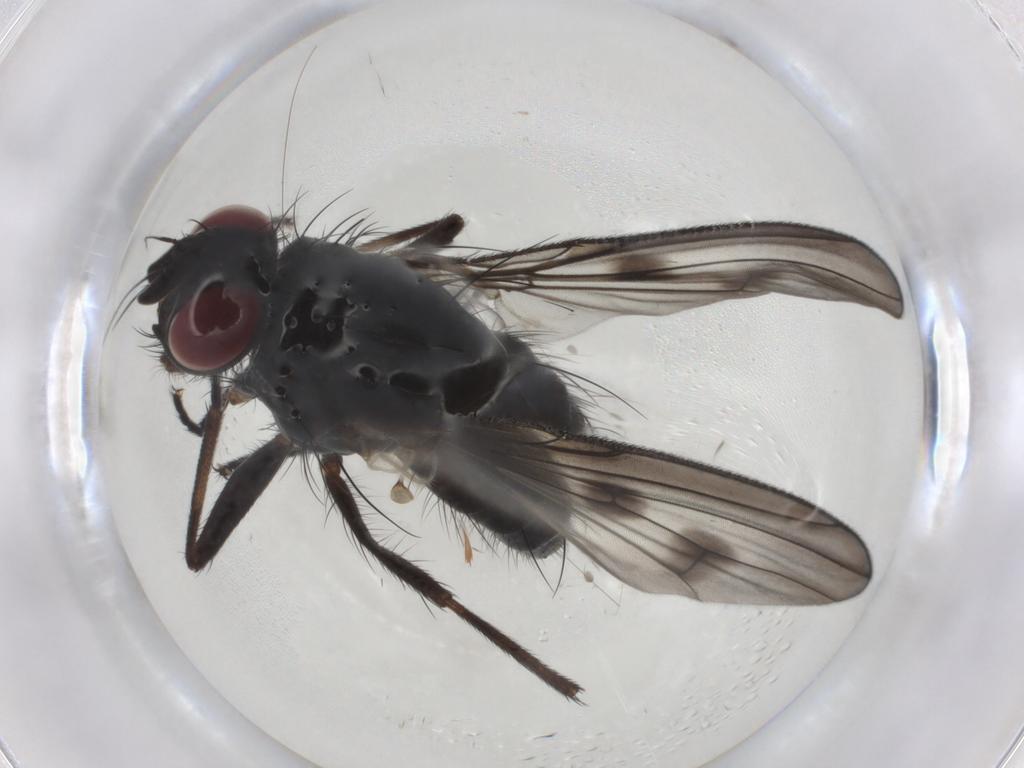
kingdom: Animalia
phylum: Arthropoda
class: Insecta
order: Diptera
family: Muscidae
